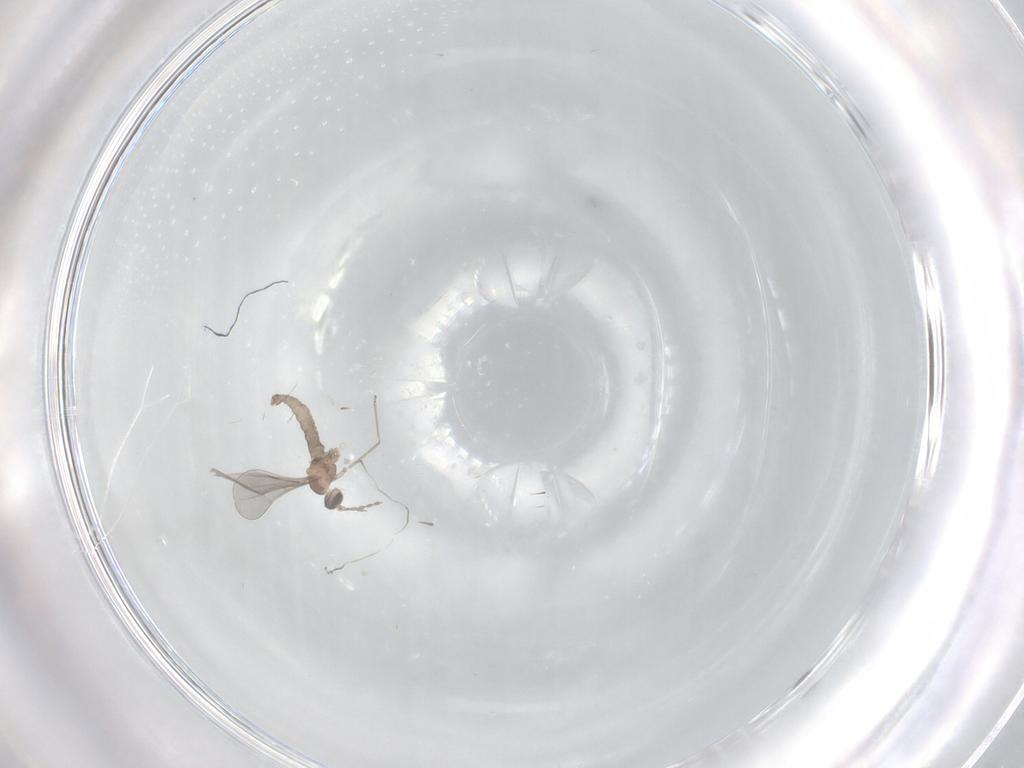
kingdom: Animalia
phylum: Arthropoda
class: Insecta
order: Diptera
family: Cecidomyiidae
